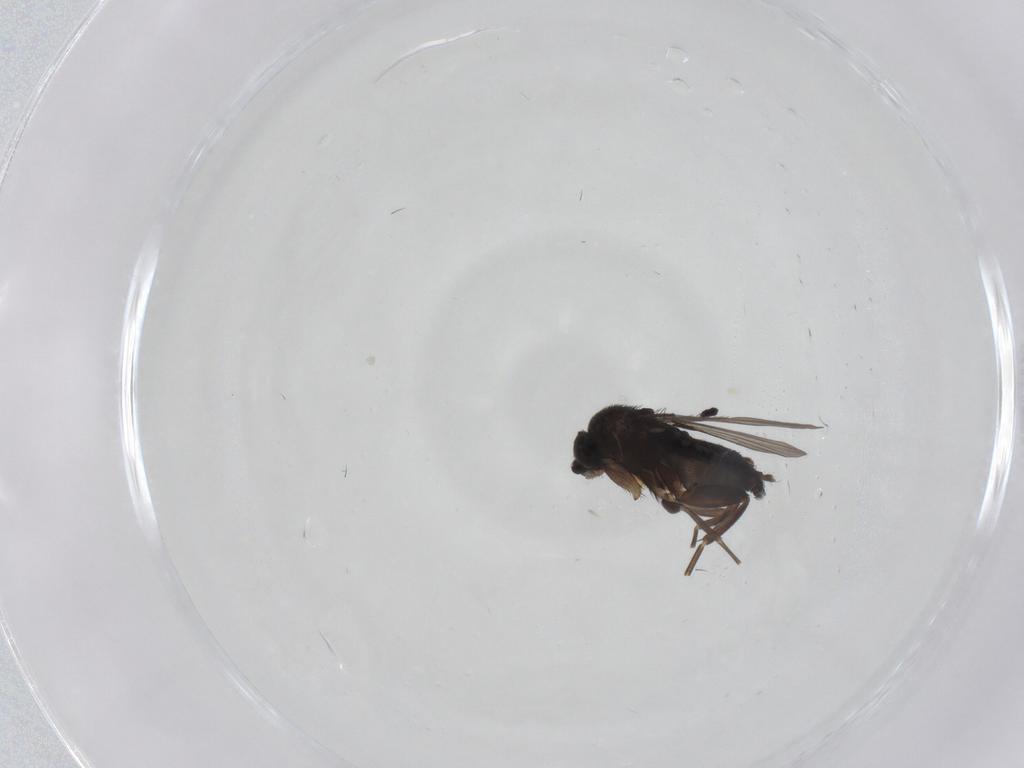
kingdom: Animalia
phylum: Arthropoda
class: Insecta
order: Diptera
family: Phoridae
